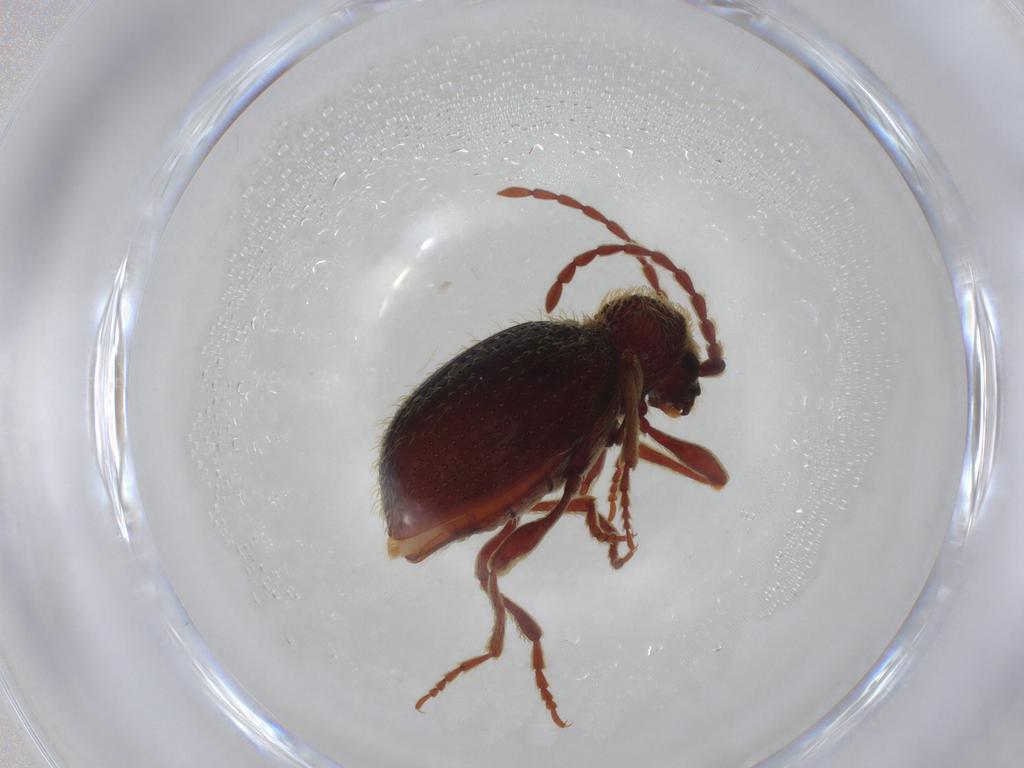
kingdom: Animalia
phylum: Arthropoda
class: Insecta
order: Coleoptera
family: Ptinidae
